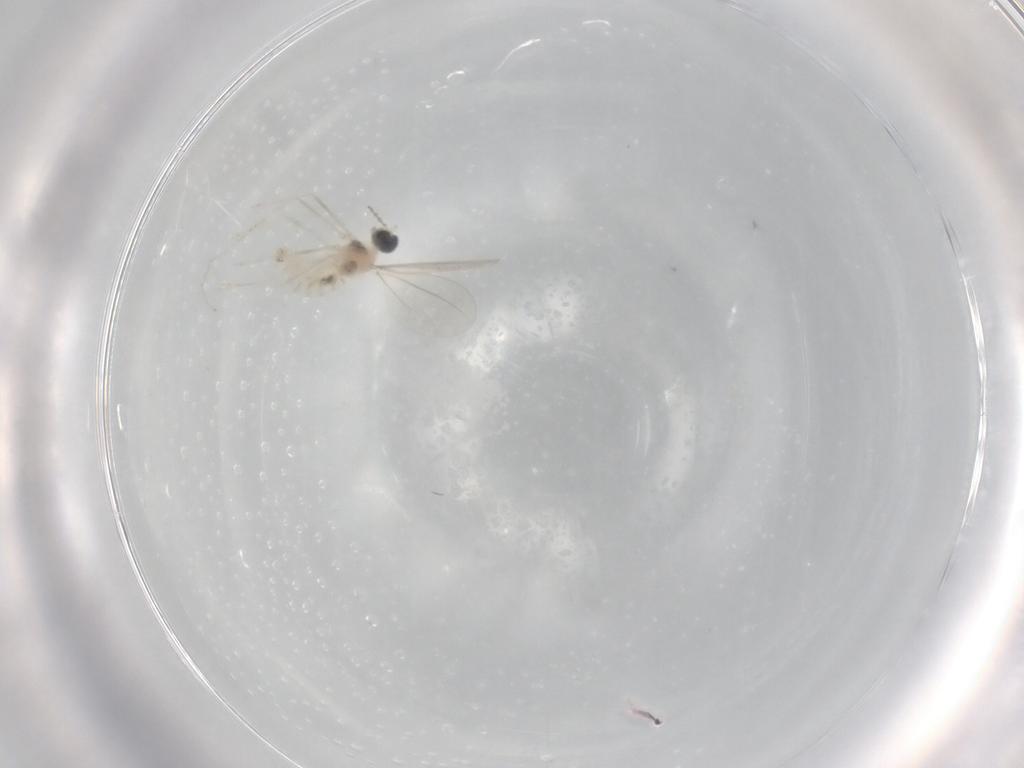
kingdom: Animalia
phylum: Arthropoda
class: Insecta
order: Diptera
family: Cecidomyiidae
